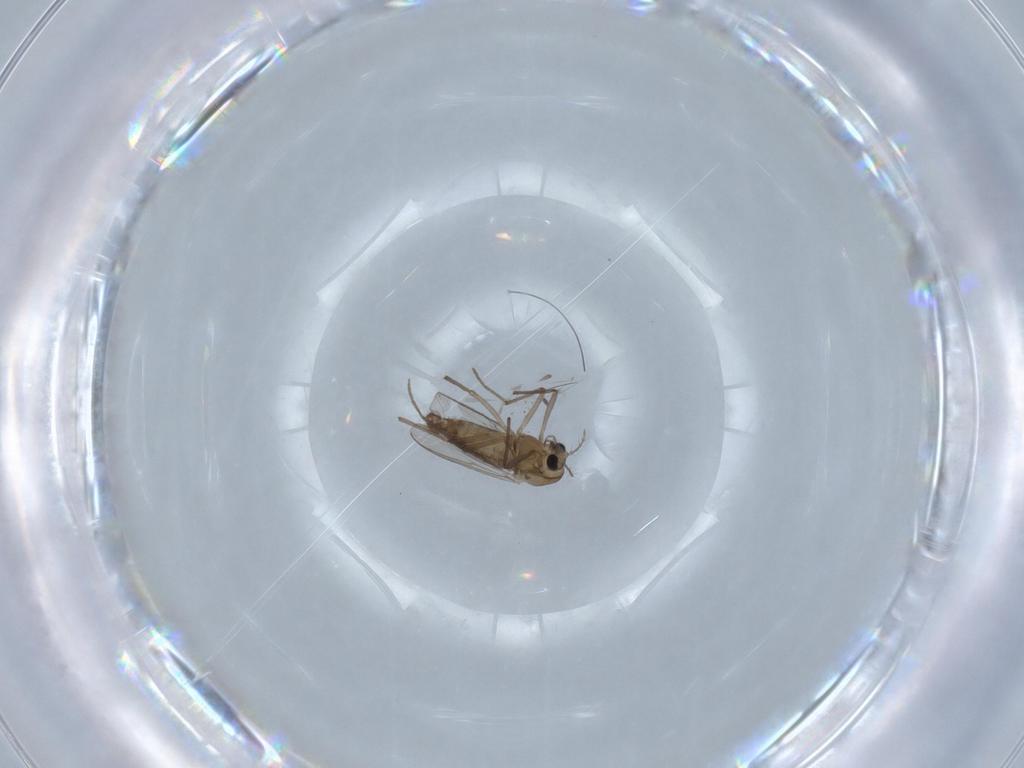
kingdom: Animalia
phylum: Arthropoda
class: Insecta
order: Diptera
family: Chironomidae
